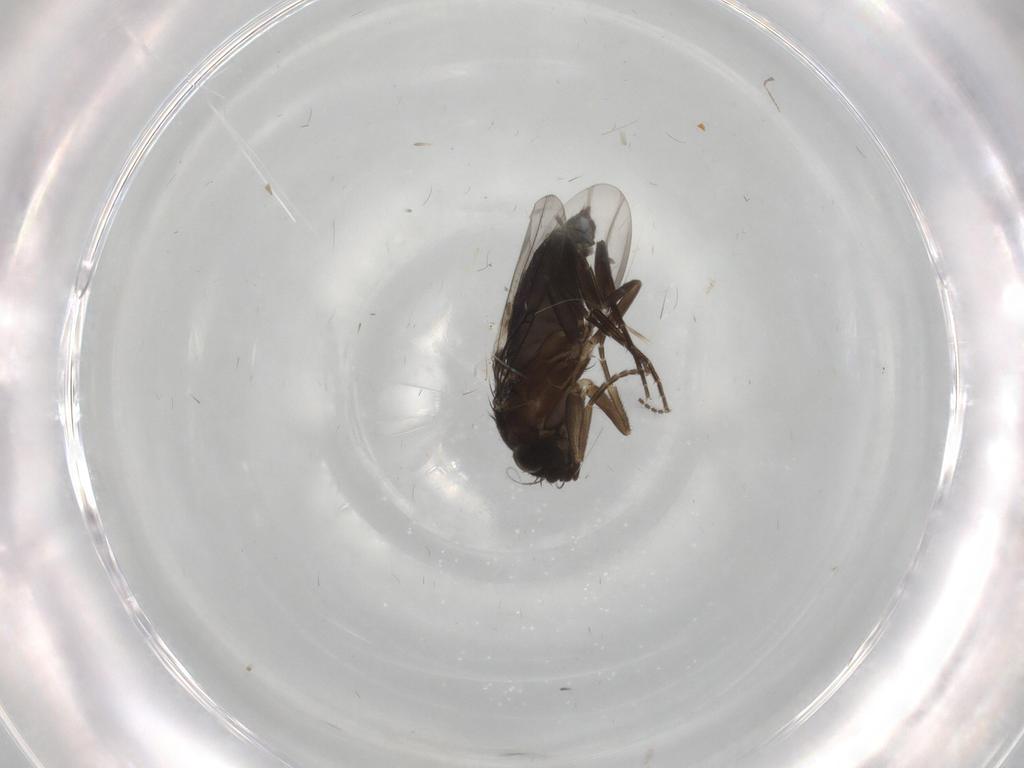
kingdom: Animalia
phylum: Arthropoda
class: Insecta
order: Diptera
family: Phoridae
